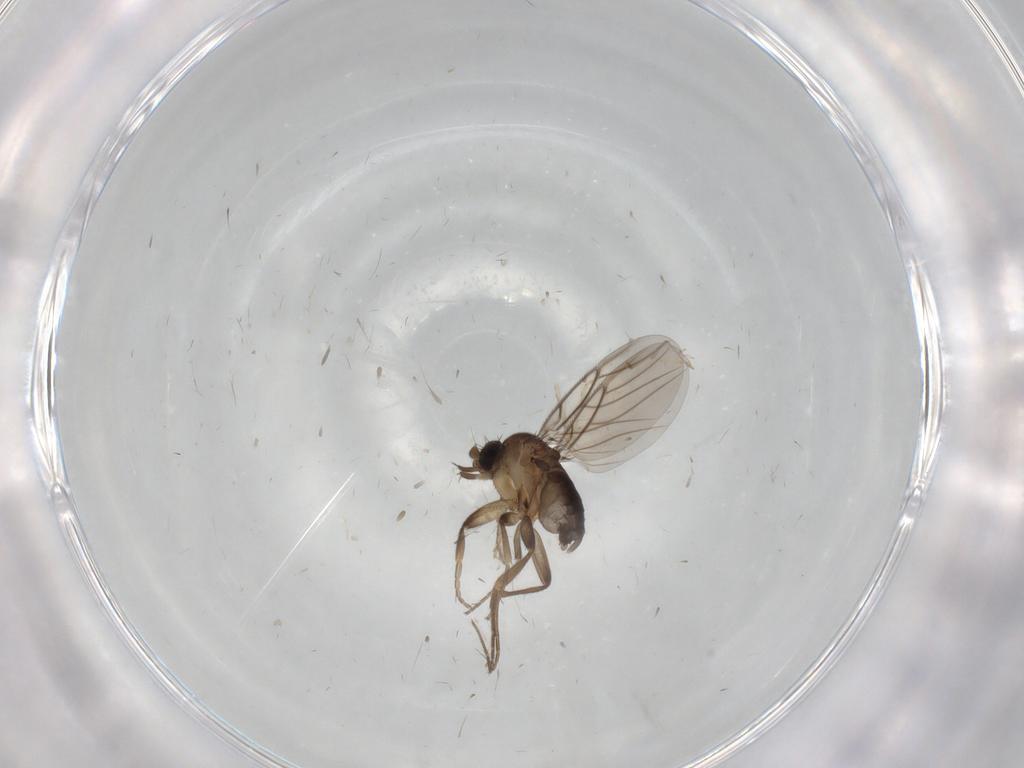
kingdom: Animalia
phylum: Arthropoda
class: Insecta
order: Diptera
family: Phoridae
